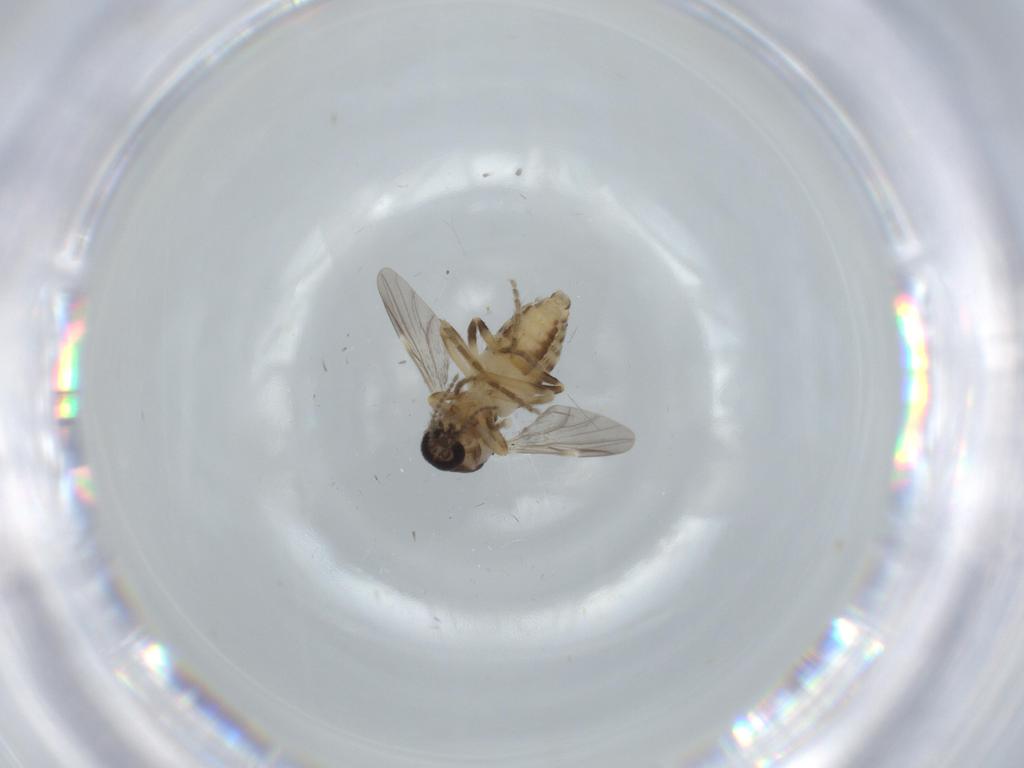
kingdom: Animalia
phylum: Arthropoda
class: Insecta
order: Diptera
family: Ceratopogonidae
